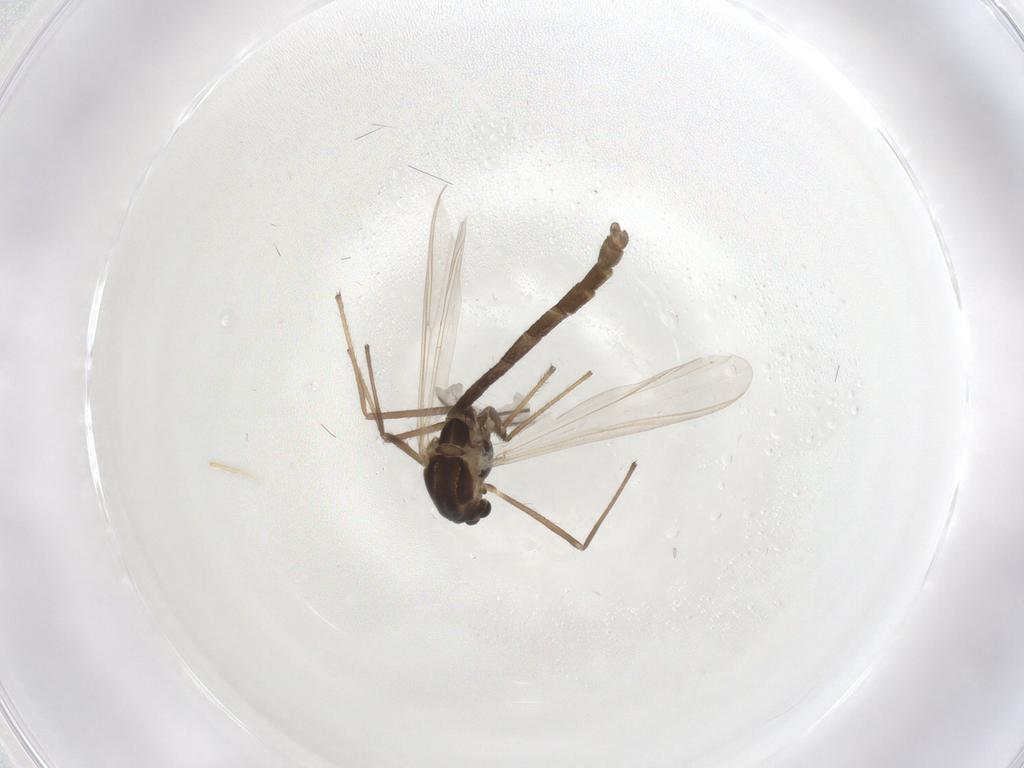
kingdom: Animalia
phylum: Arthropoda
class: Insecta
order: Diptera
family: Chironomidae
